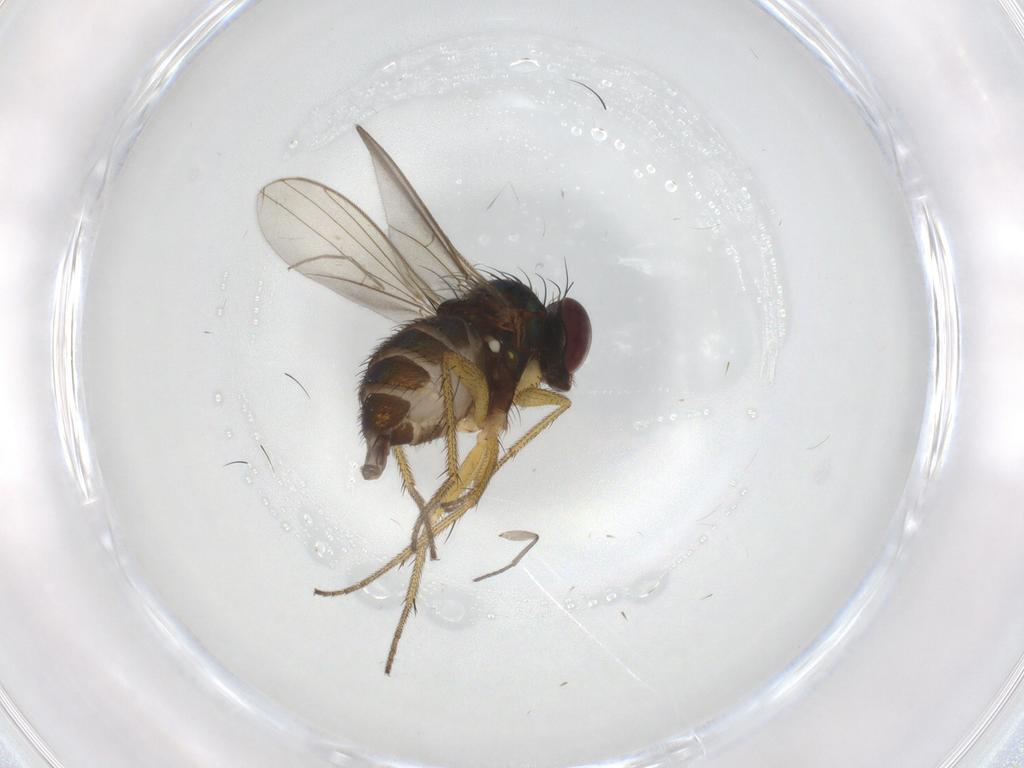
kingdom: Animalia
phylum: Arthropoda
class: Insecta
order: Diptera
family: Dolichopodidae
